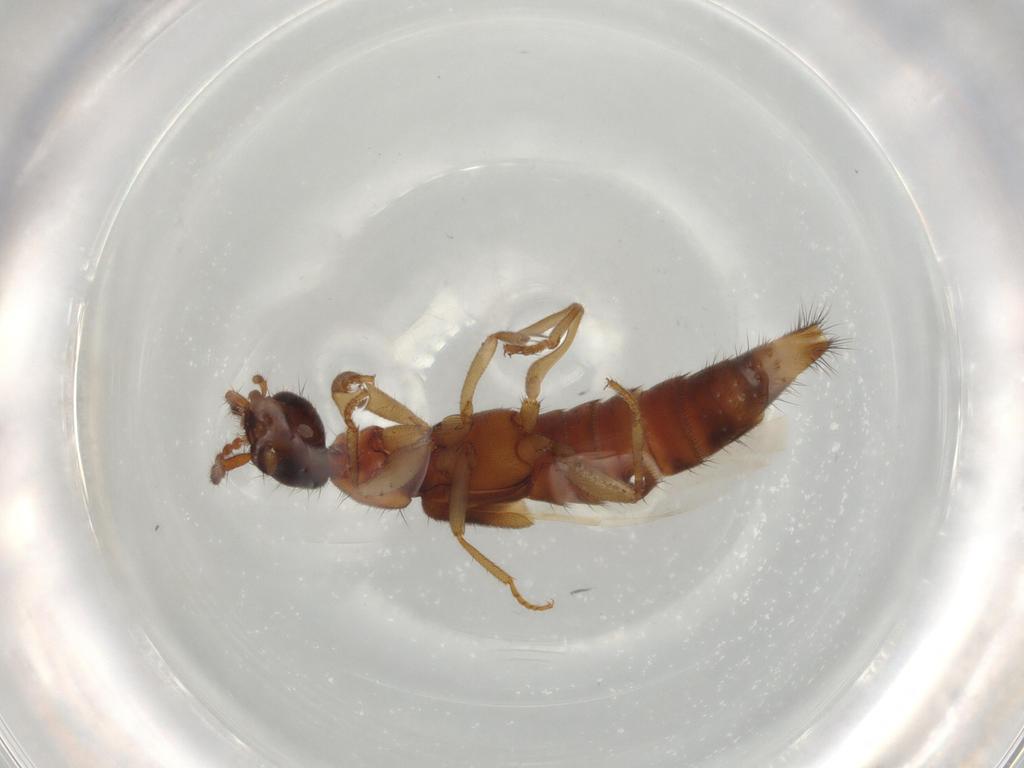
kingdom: Animalia
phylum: Arthropoda
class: Insecta
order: Coleoptera
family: Staphylinidae
